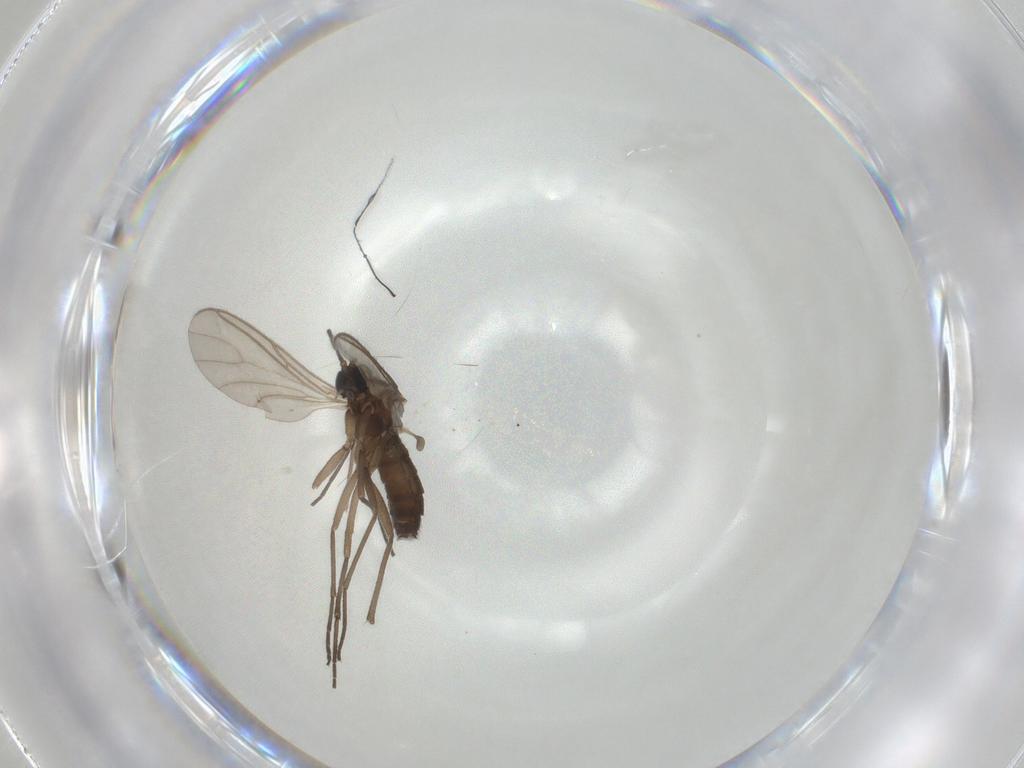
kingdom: Animalia
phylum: Arthropoda
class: Insecta
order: Diptera
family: Sciaridae
